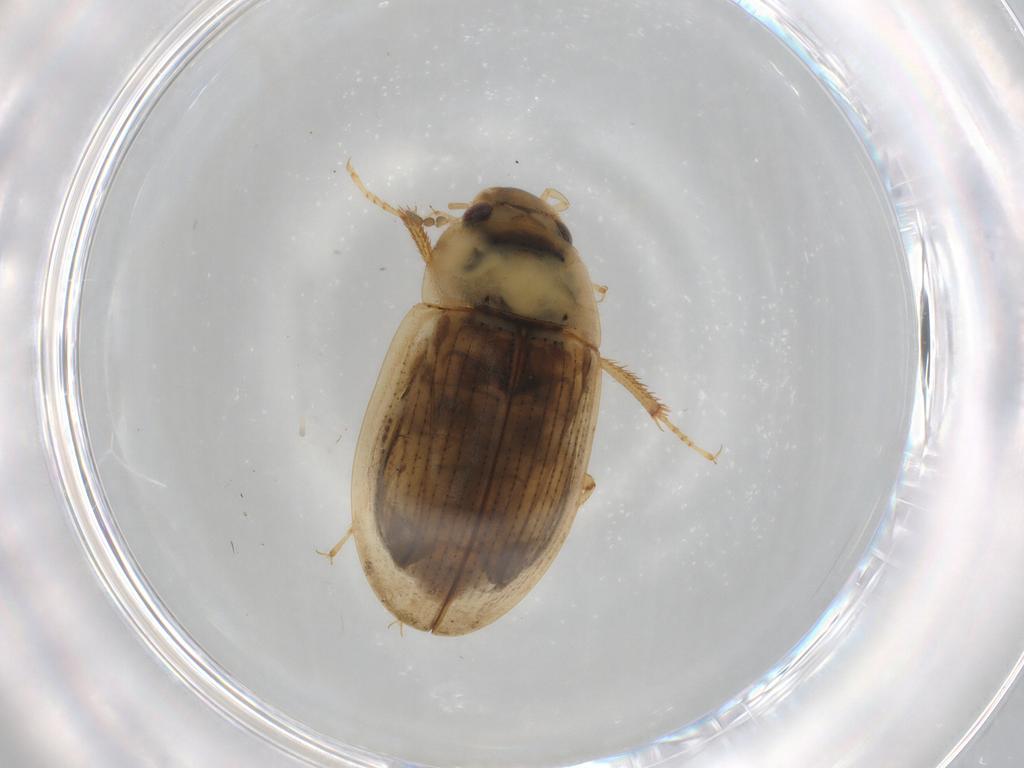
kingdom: Animalia
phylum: Arthropoda
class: Insecta
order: Coleoptera
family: Hydrophilidae
